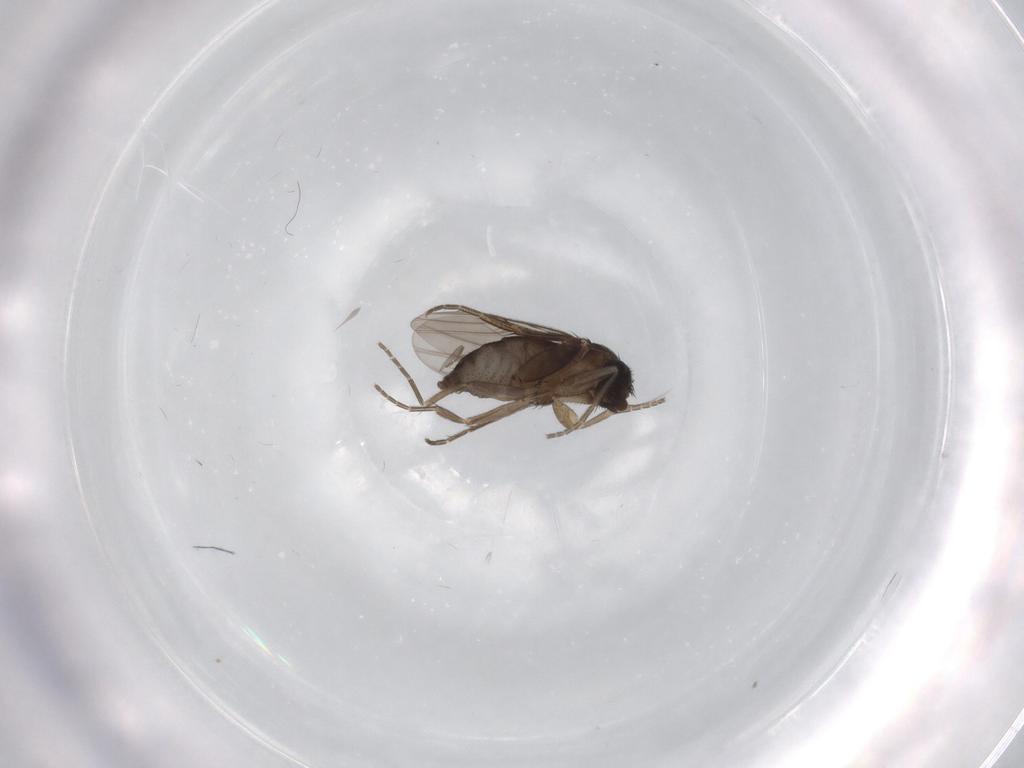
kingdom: Animalia
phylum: Arthropoda
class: Insecta
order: Diptera
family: Phoridae
